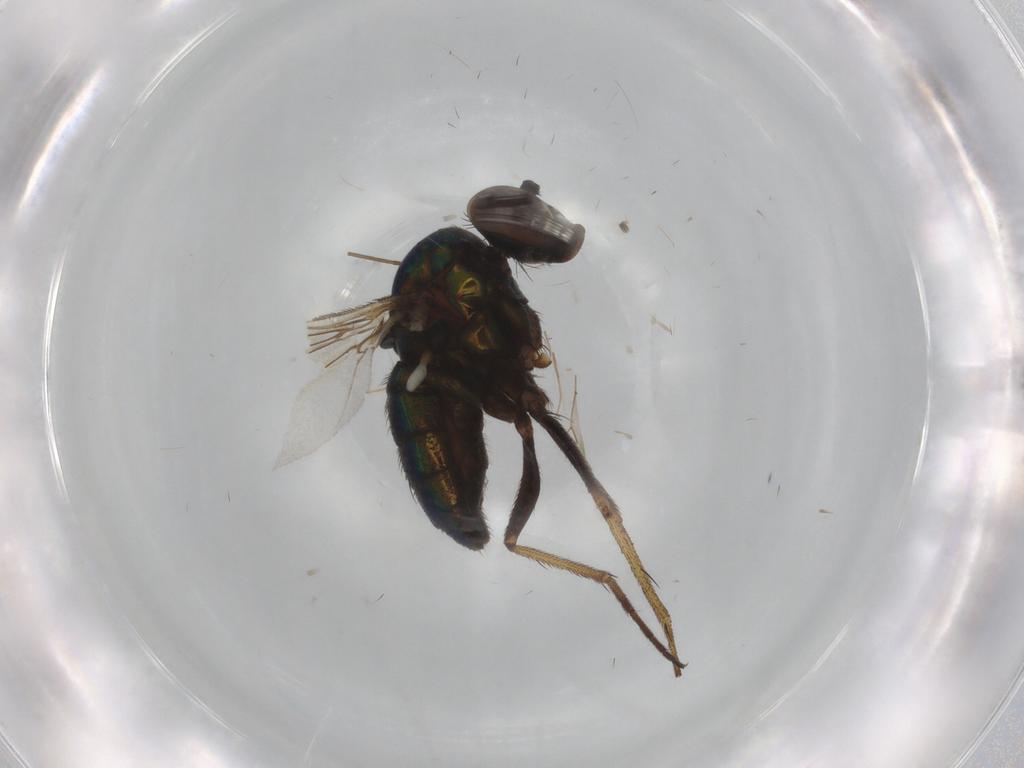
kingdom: Animalia
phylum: Arthropoda
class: Insecta
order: Diptera
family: Dolichopodidae
